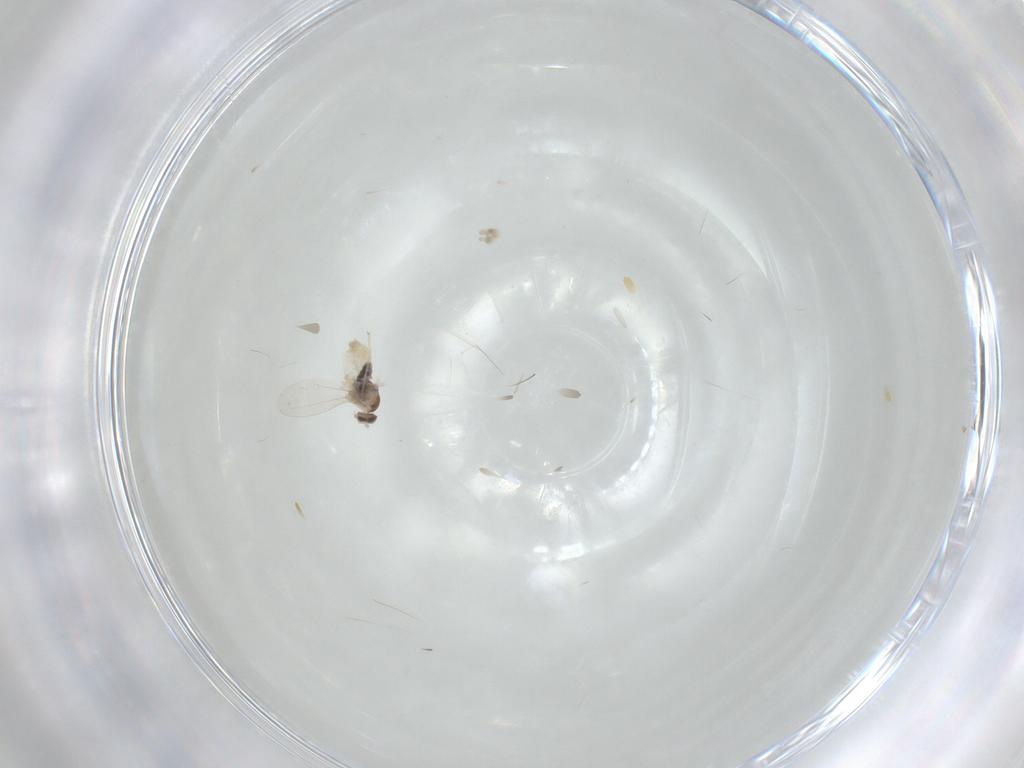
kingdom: Animalia
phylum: Arthropoda
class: Insecta
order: Diptera
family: Cecidomyiidae
